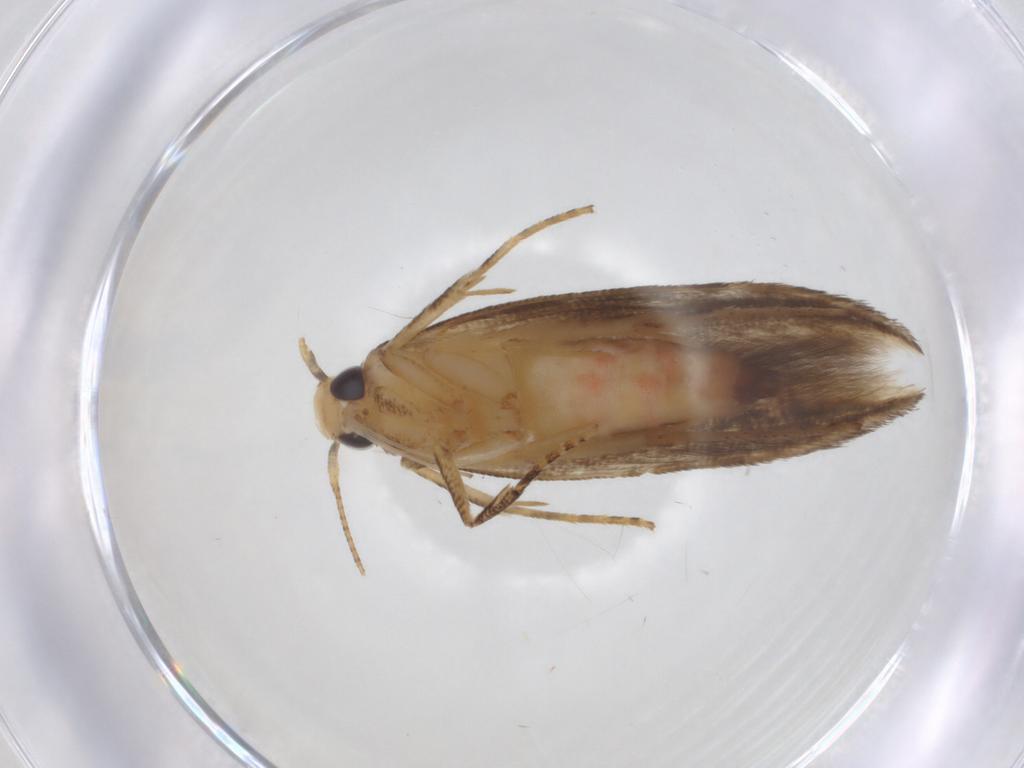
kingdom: Animalia
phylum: Arthropoda
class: Insecta
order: Lepidoptera
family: Momphidae
